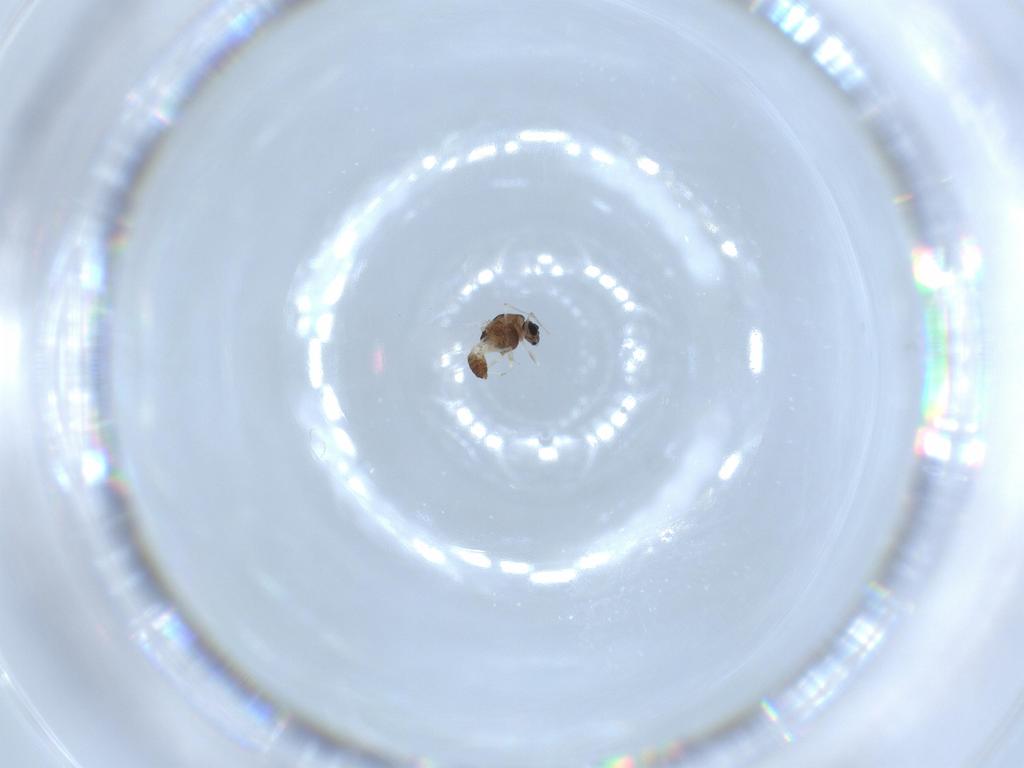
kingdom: Animalia
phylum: Arthropoda
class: Insecta
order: Diptera
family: Chironomidae
